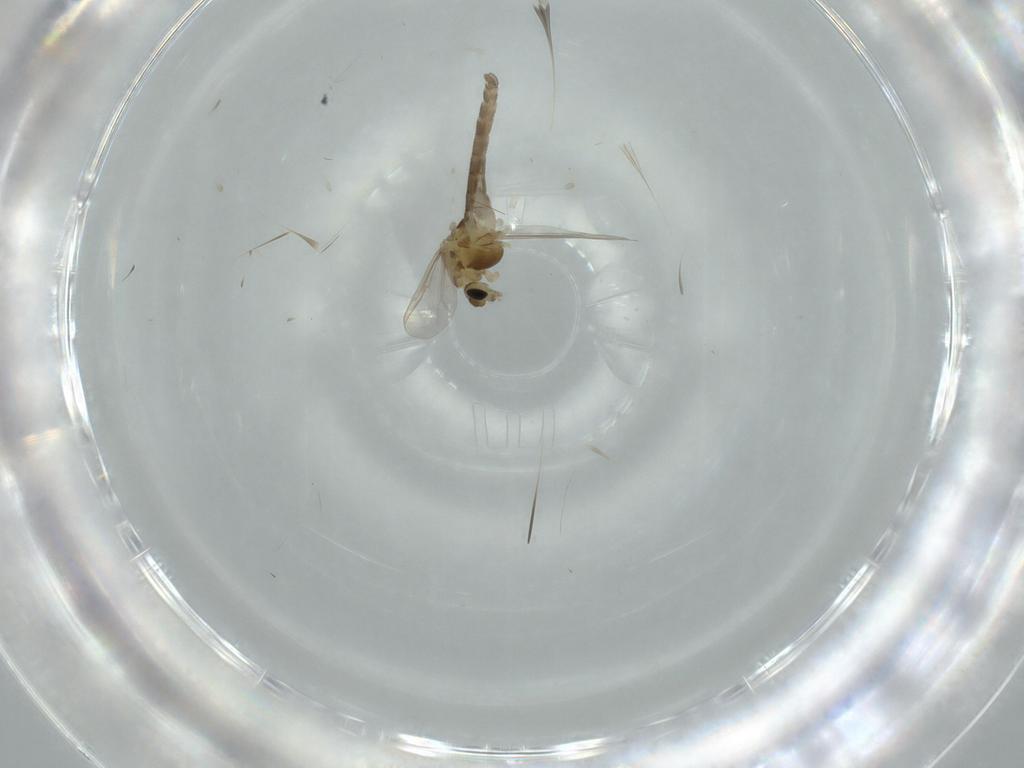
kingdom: Animalia
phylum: Arthropoda
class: Insecta
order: Diptera
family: Chironomidae
